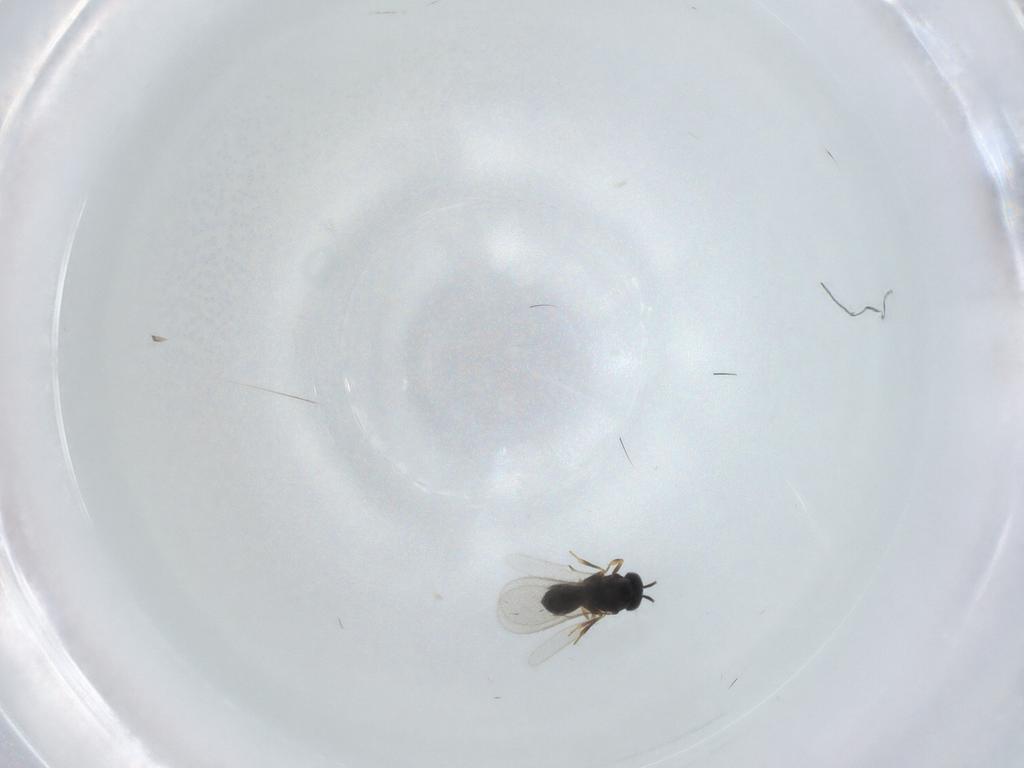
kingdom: Animalia
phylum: Arthropoda
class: Insecta
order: Hymenoptera
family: Scelionidae
